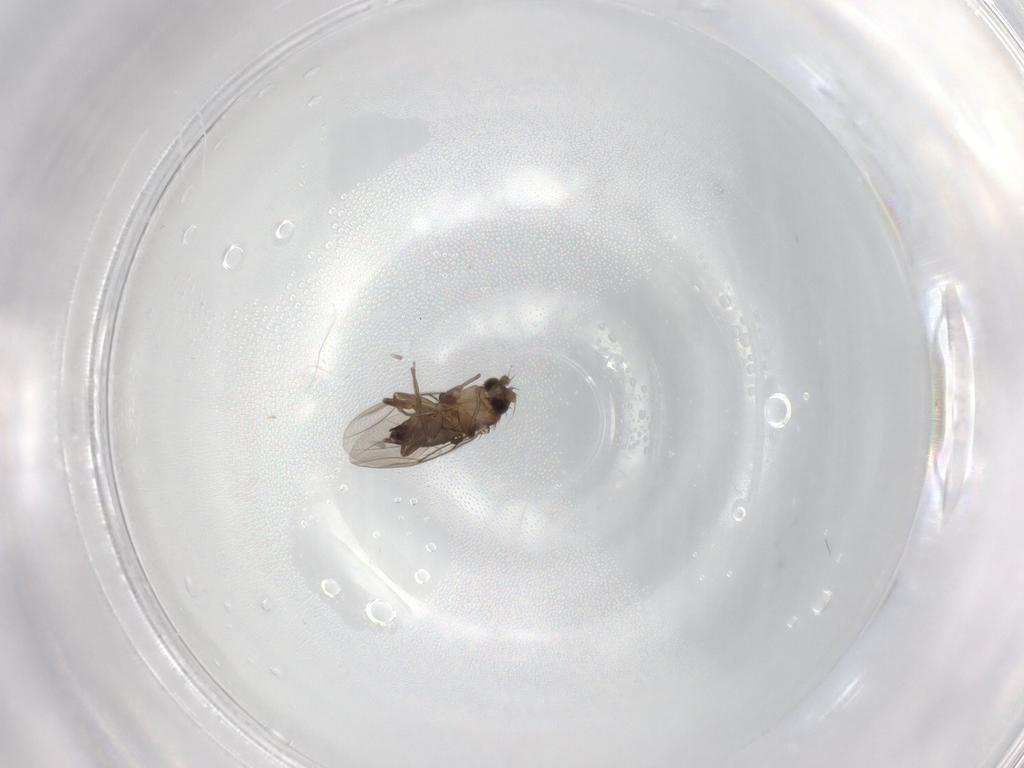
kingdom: Animalia
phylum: Arthropoda
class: Insecta
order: Diptera
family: Phoridae
